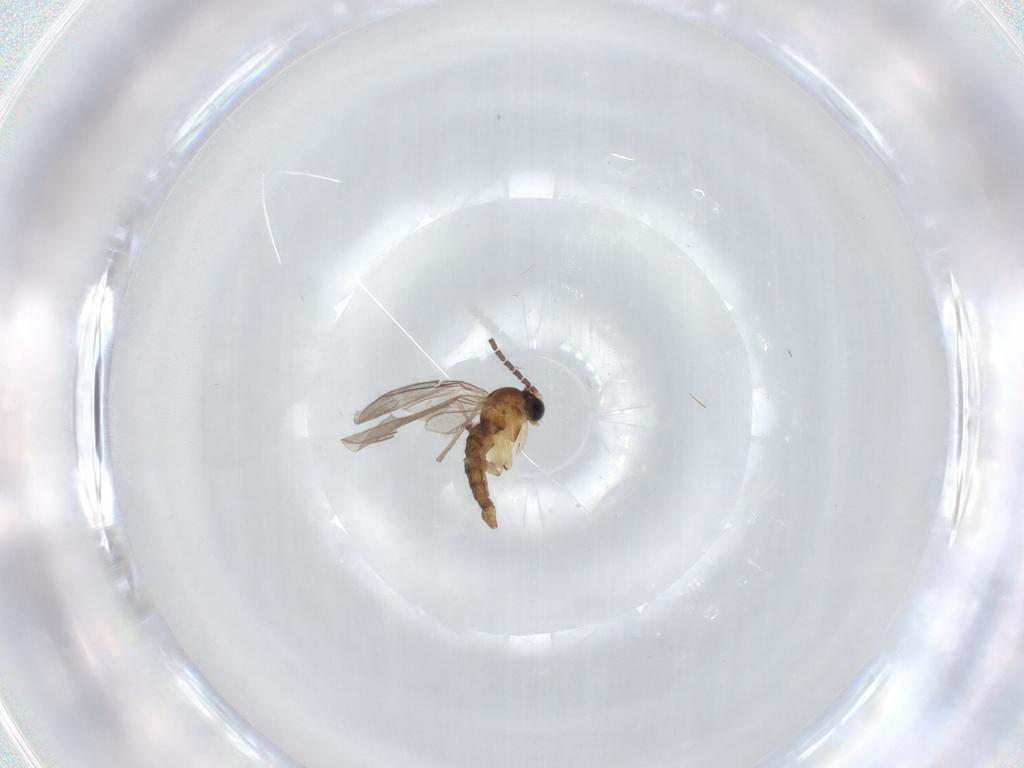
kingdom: Animalia
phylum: Arthropoda
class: Insecta
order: Diptera
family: Sciaridae
